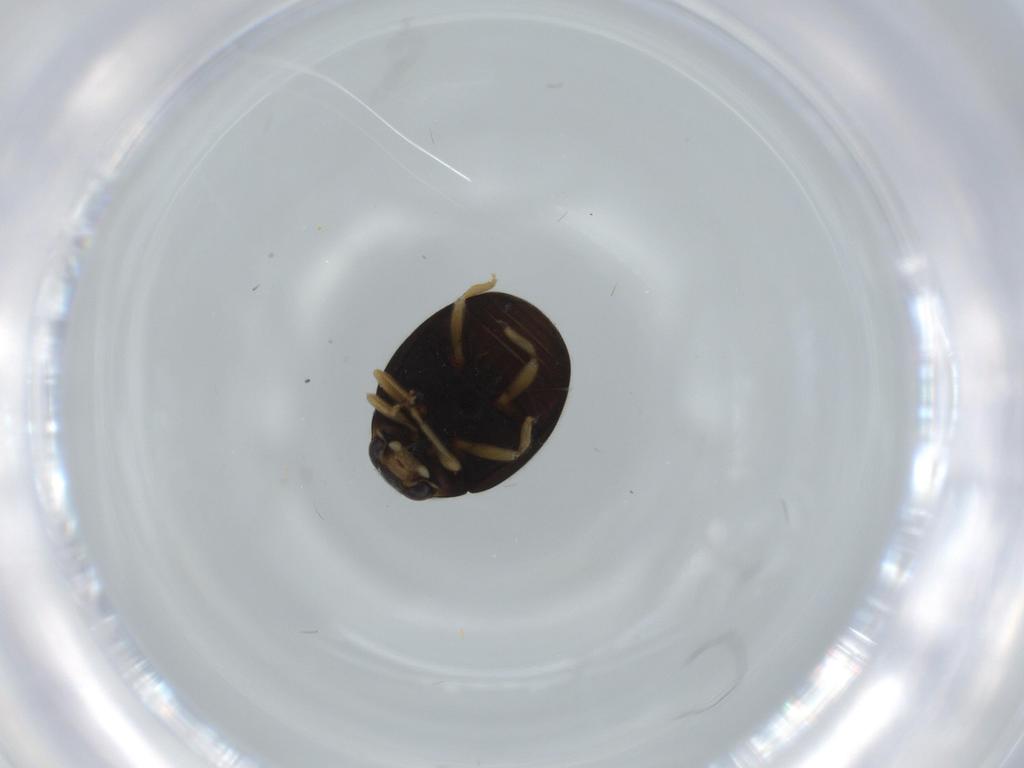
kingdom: Animalia
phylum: Arthropoda
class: Insecta
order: Coleoptera
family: Coccinellidae
